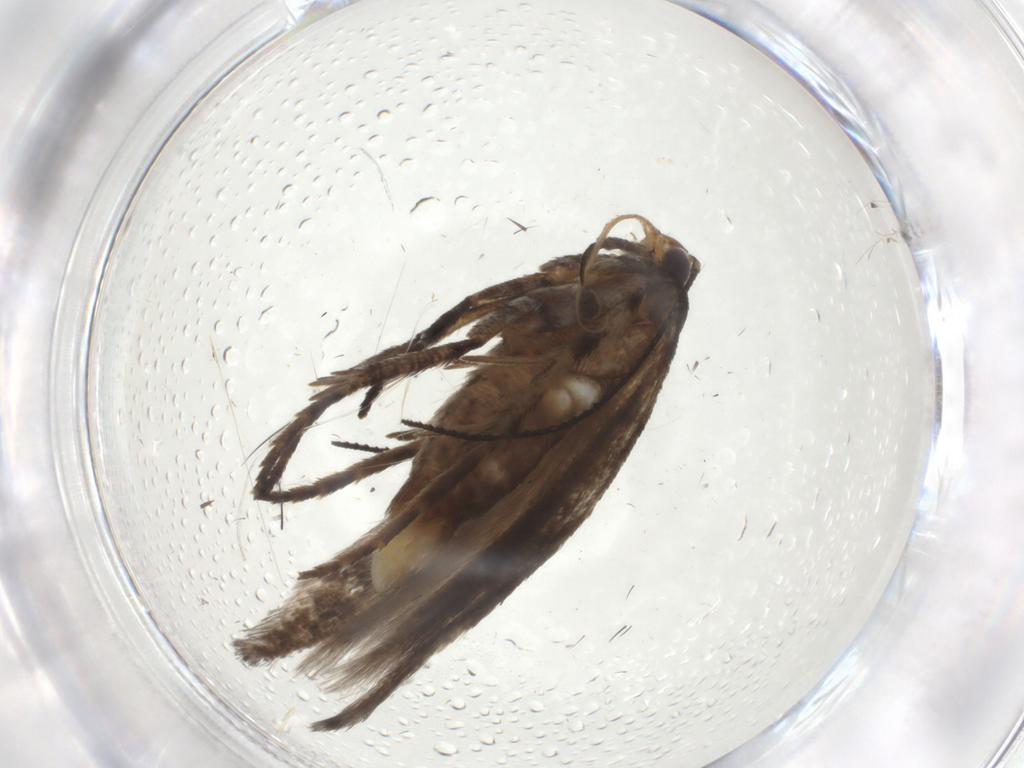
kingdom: Animalia
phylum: Arthropoda
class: Insecta
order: Lepidoptera
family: Gelechiidae
